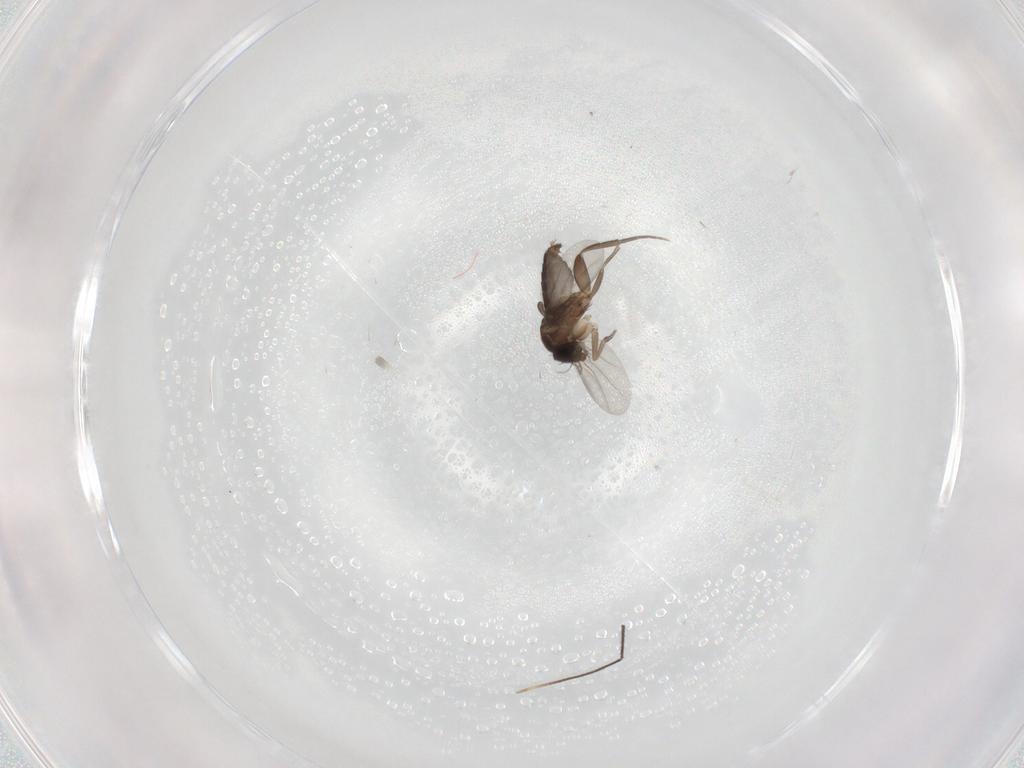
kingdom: Animalia
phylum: Arthropoda
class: Insecta
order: Diptera
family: Phoridae
